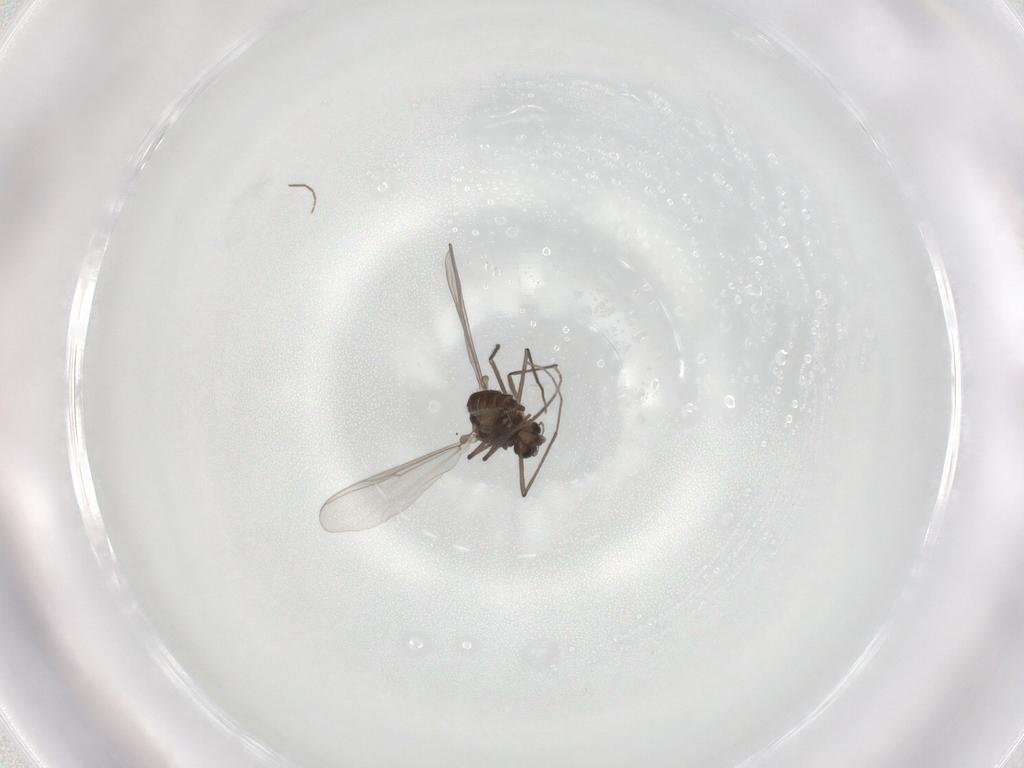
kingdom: Animalia
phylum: Arthropoda
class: Insecta
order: Diptera
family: Chironomidae
